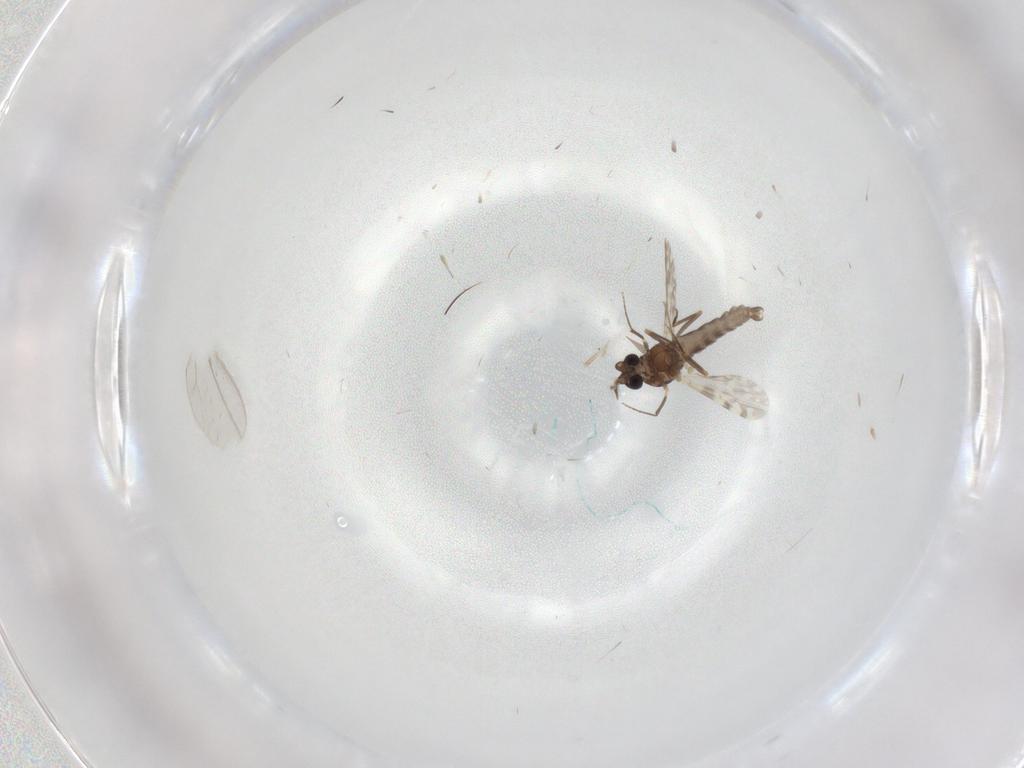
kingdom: Animalia
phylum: Arthropoda
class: Insecta
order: Diptera
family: Ceratopogonidae
